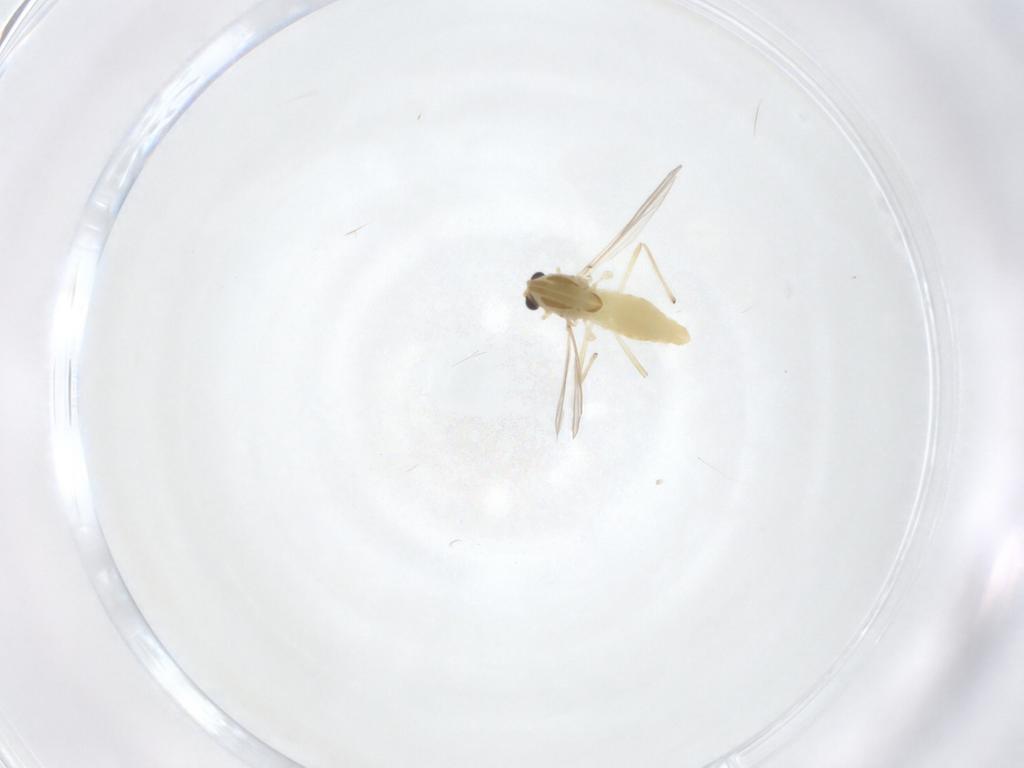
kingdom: Animalia
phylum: Arthropoda
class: Insecta
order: Diptera
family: Chironomidae
